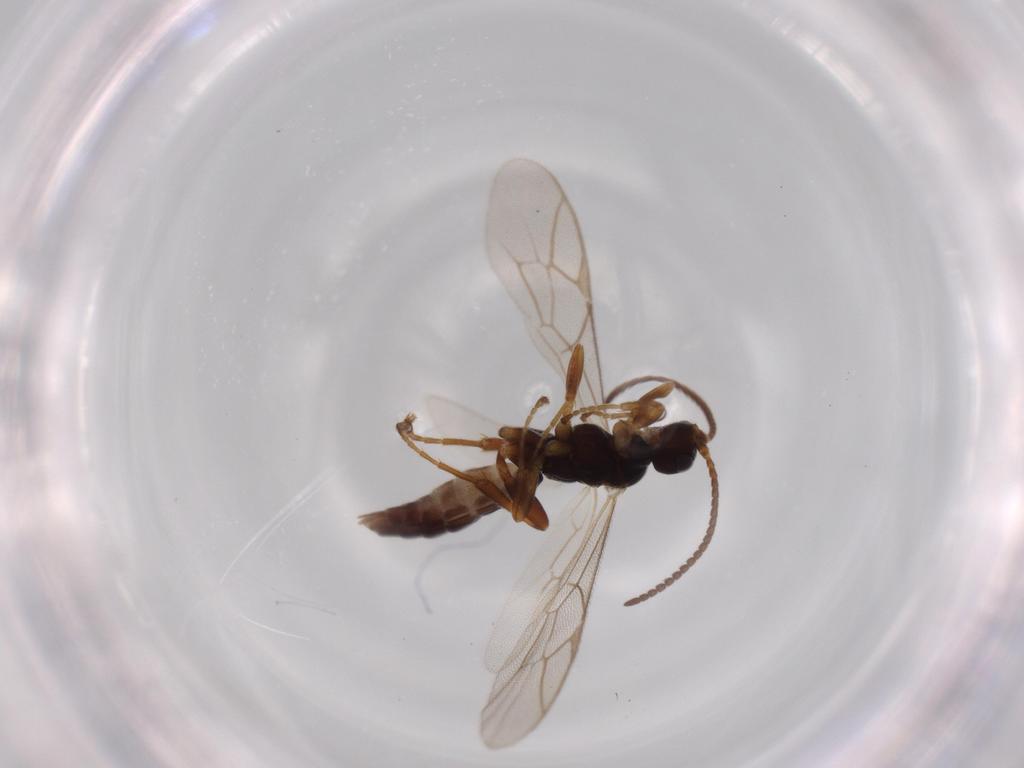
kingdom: Animalia
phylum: Arthropoda
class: Insecta
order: Hymenoptera
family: Ichneumonidae
